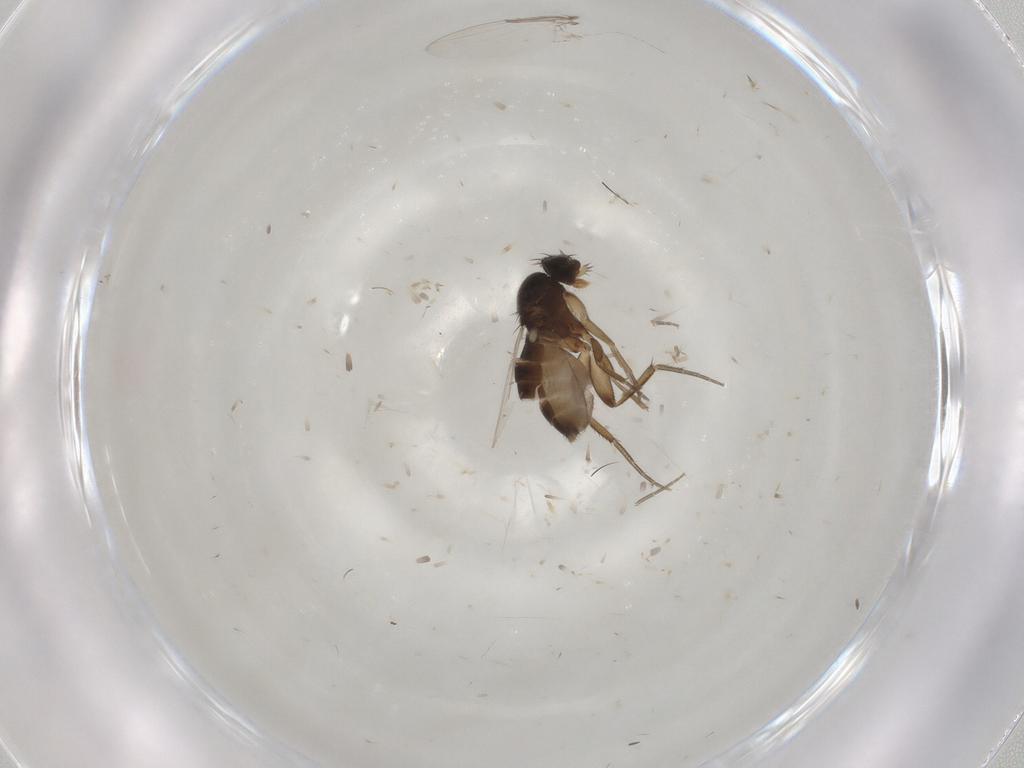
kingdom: Animalia
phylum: Arthropoda
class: Insecta
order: Diptera
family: Phoridae
